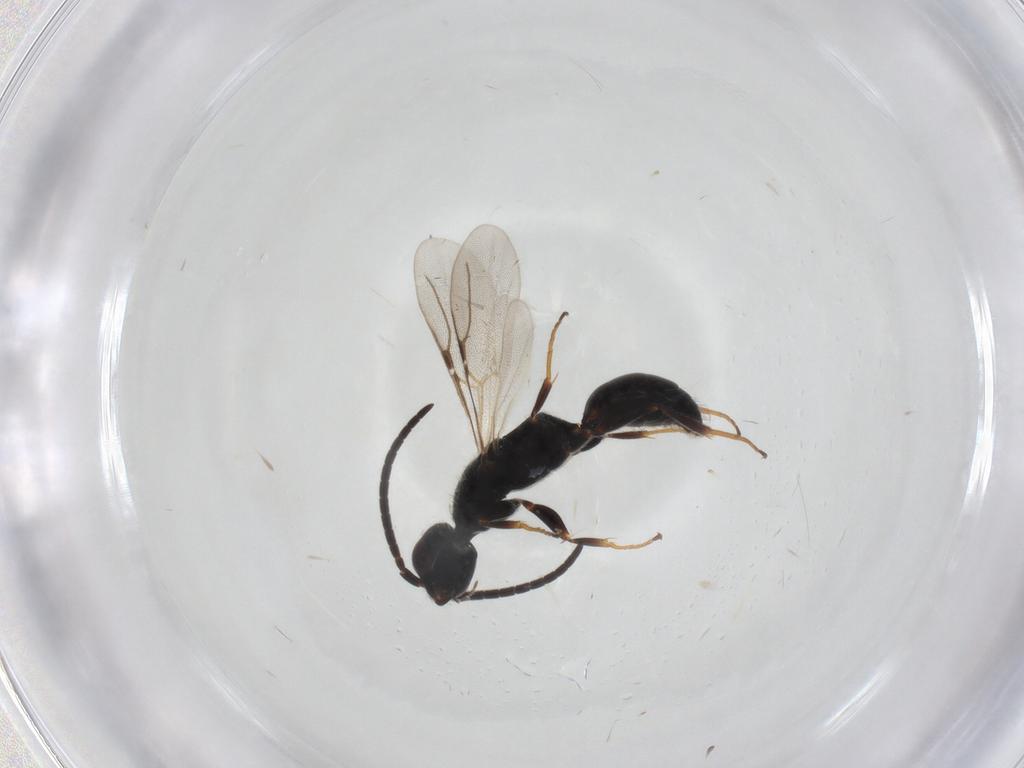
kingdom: Animalia
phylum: Arthropoda
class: Insecta
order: Hymenoptera
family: Bethylidae
